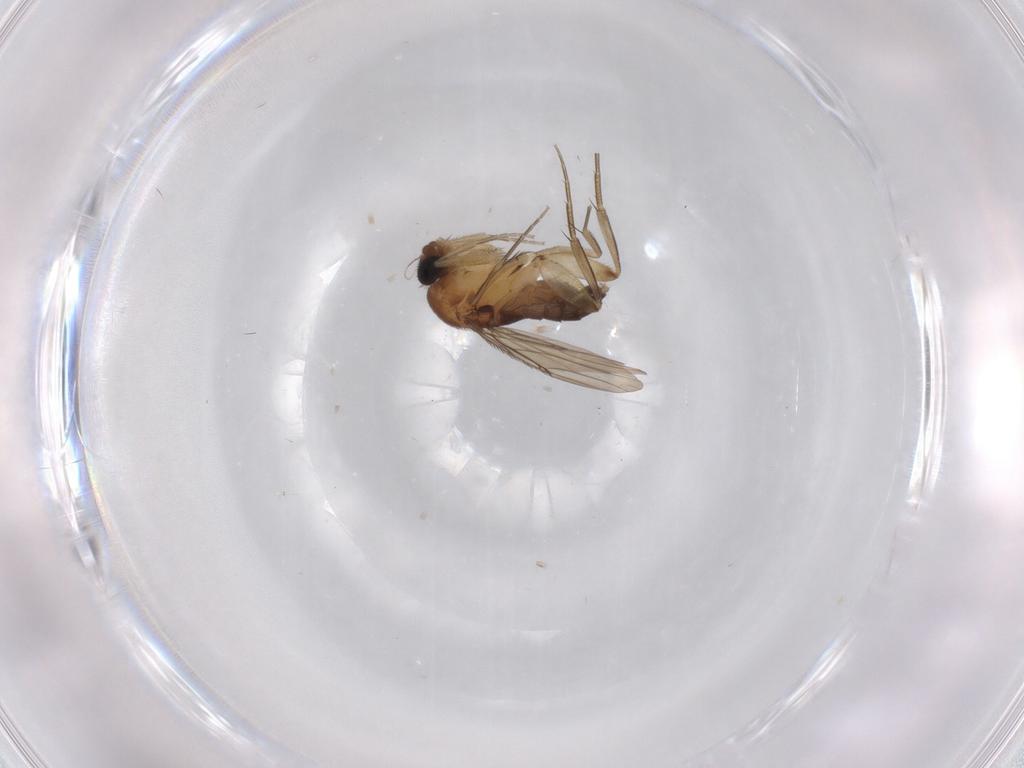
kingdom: Animalia
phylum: Arthropoda
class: Insecta
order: Diptera
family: Phoridae
